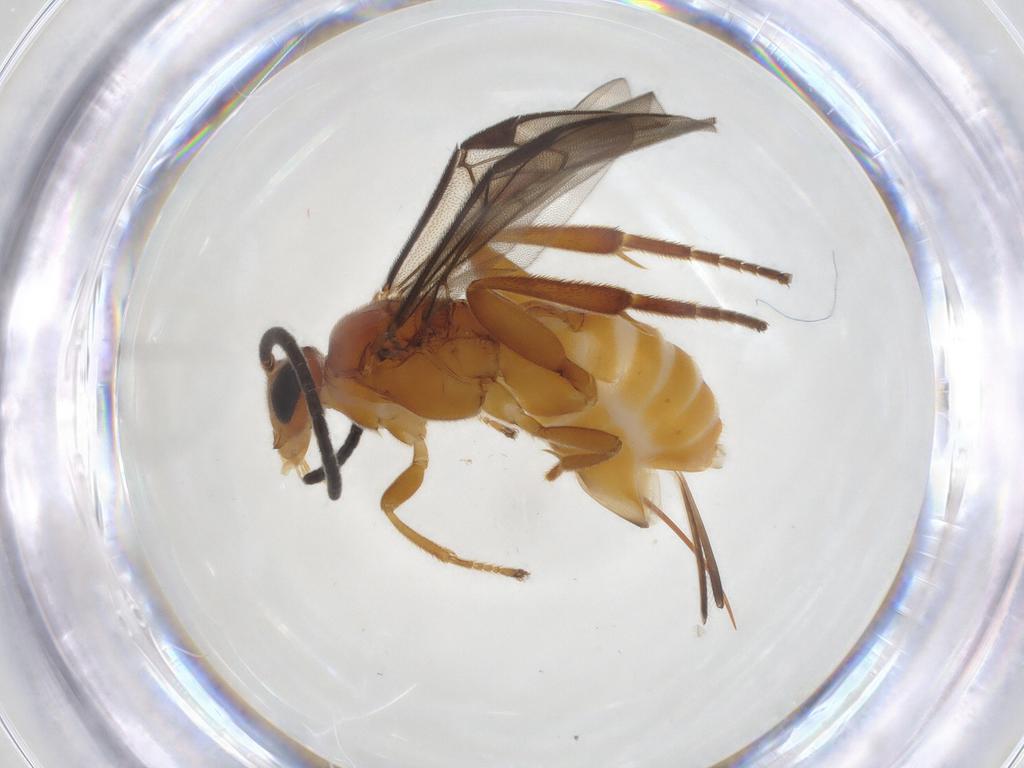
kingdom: Animalia
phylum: Arthropoda
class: Insecta
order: Hymenoptera
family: Braconidae
